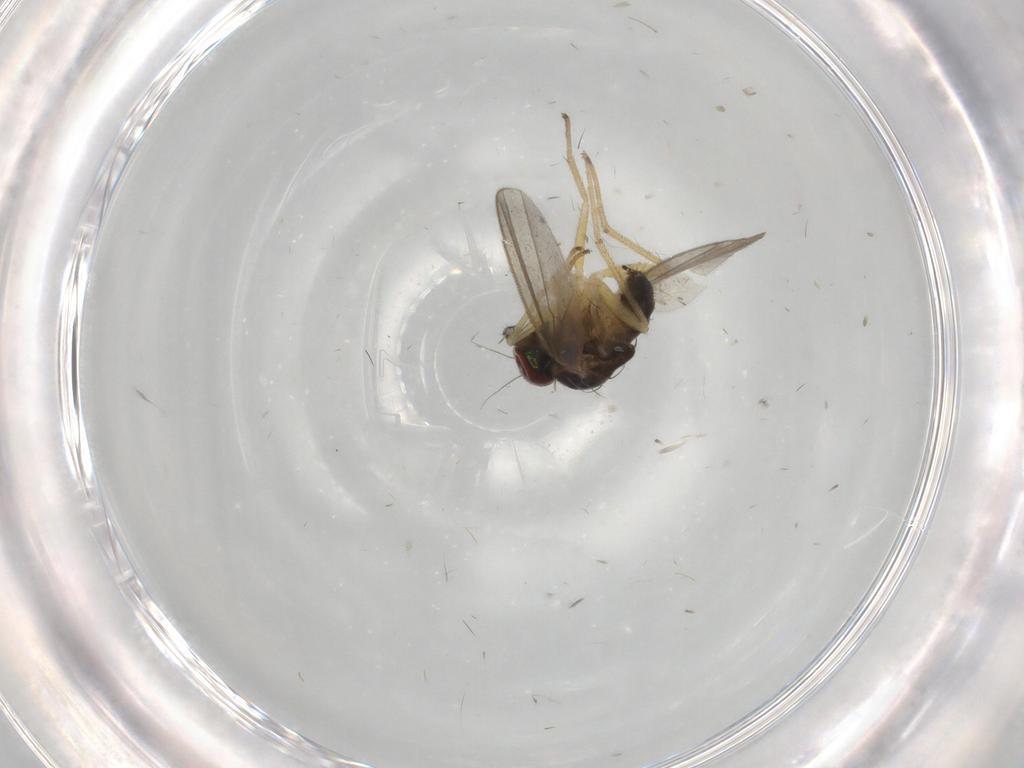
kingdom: Animalia
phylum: Arthropoda
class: Insecta
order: Diptera
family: Dolichopodidae
